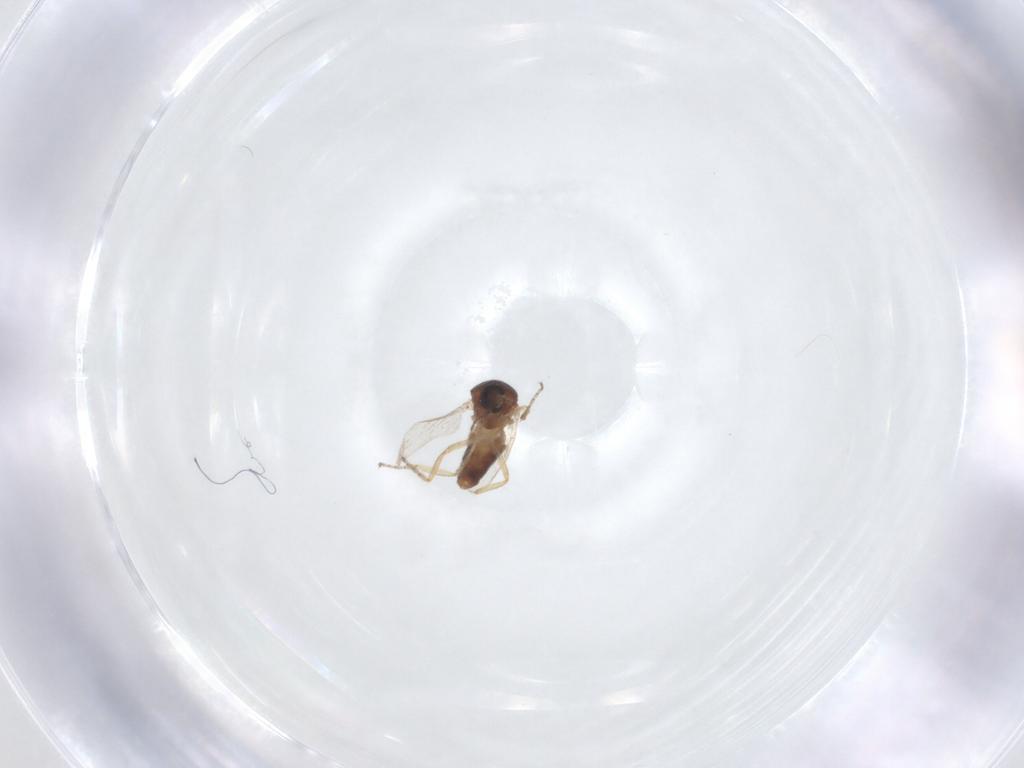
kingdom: Animalia
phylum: Arthropoda
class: Insecta
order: Diptera
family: Ceratopogonidae
